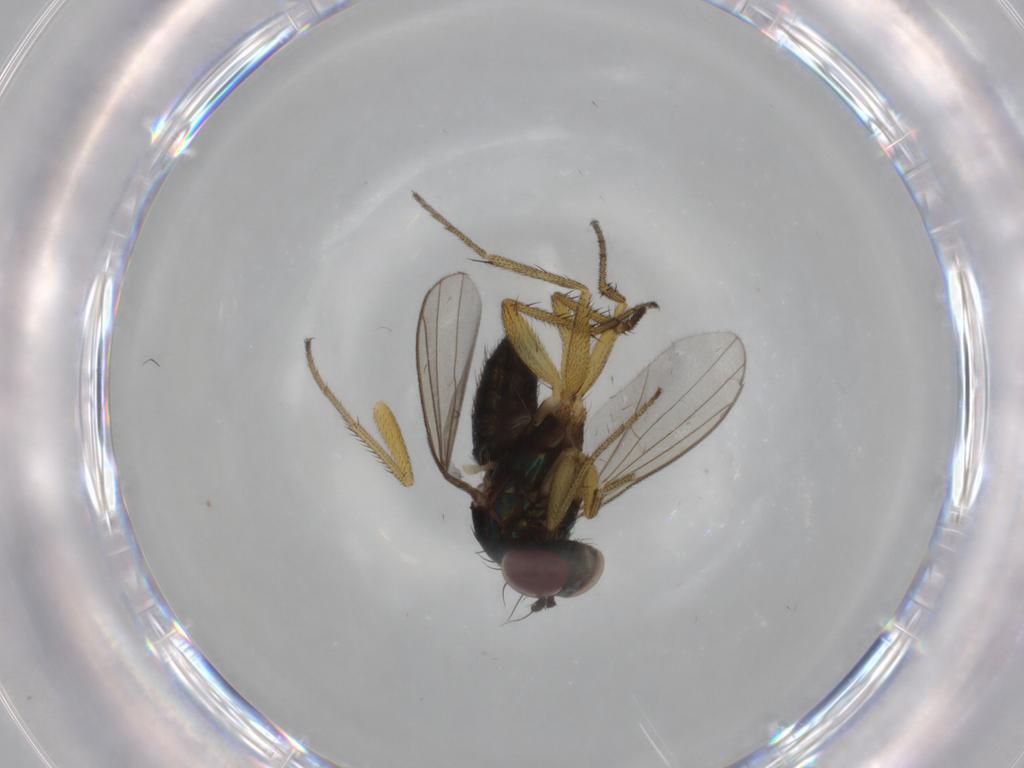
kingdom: Animalia
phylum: Arthropoda
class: Insecta
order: Diptera
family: Dolichopodidae
